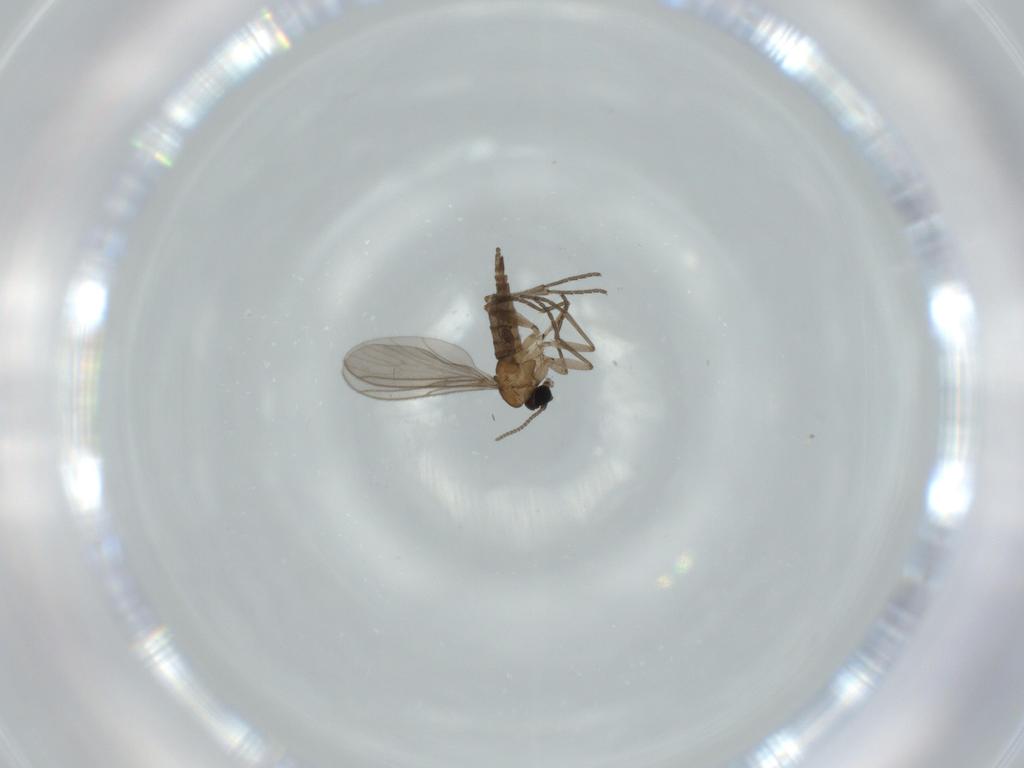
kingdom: Animalia
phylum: Arthropoda
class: Insecta
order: Diptera
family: Sciaridae
